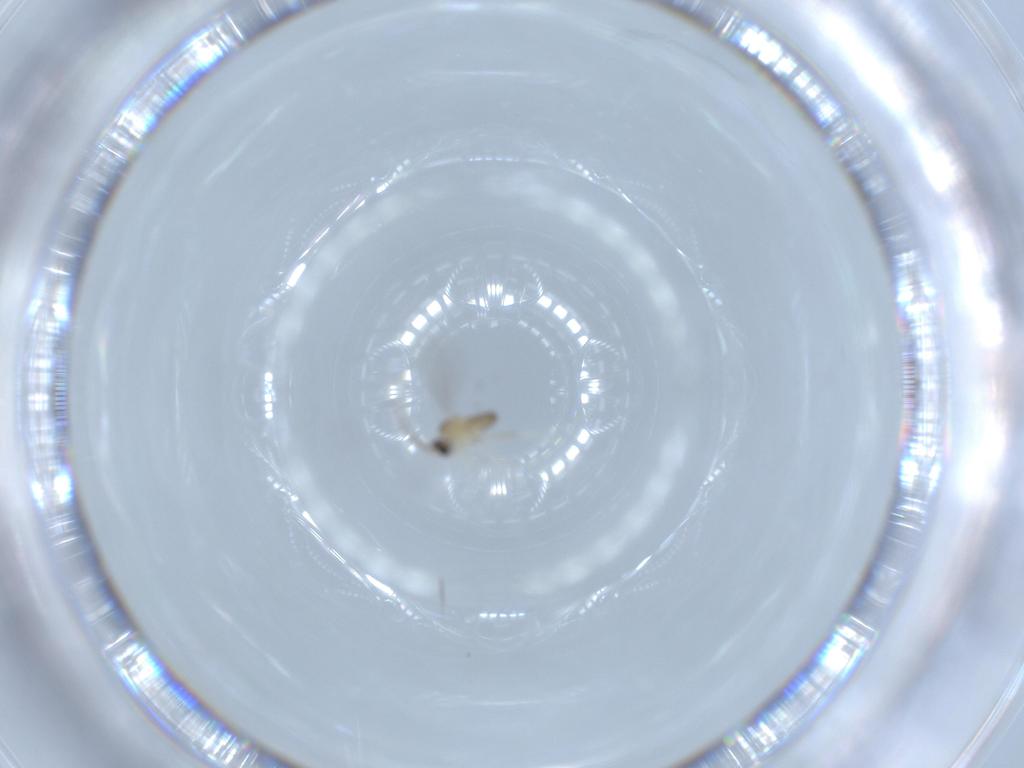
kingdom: Animalia
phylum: Arthropoda
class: Insecta
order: Diptera
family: Cecidomyiidae
